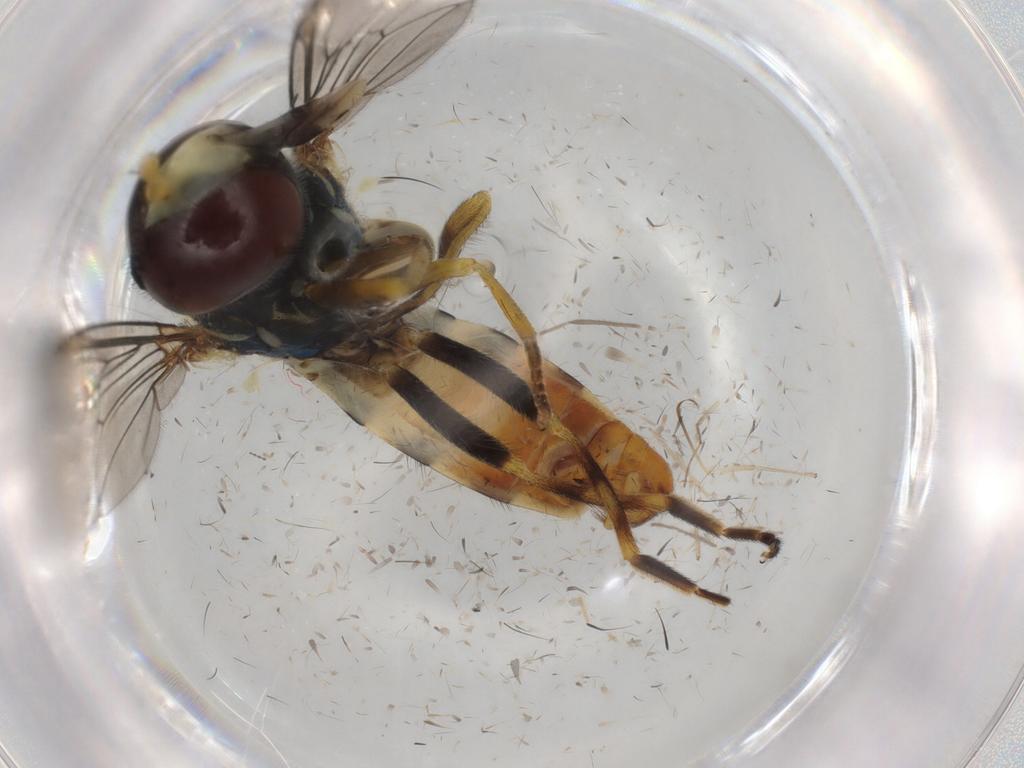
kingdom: Animalia
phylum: Arthropoda
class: Insecta
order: Diptera
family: Syrphidae
